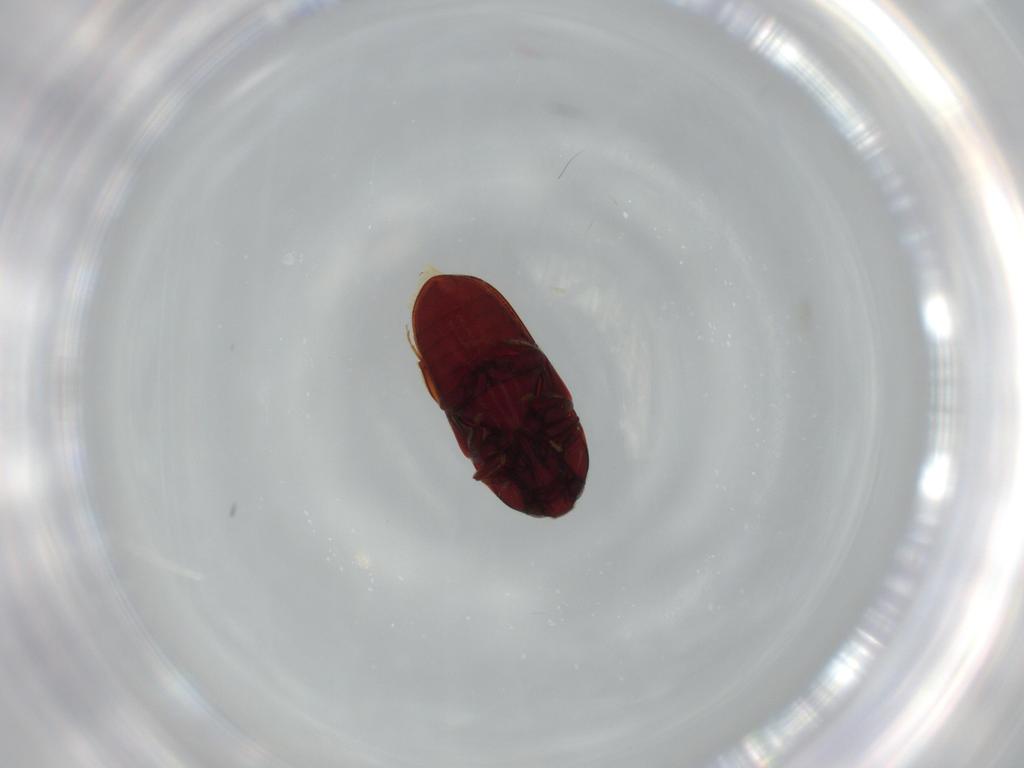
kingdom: Animalia
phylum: Arthropoda
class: Insecta
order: Coleoptera
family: Throscidae
